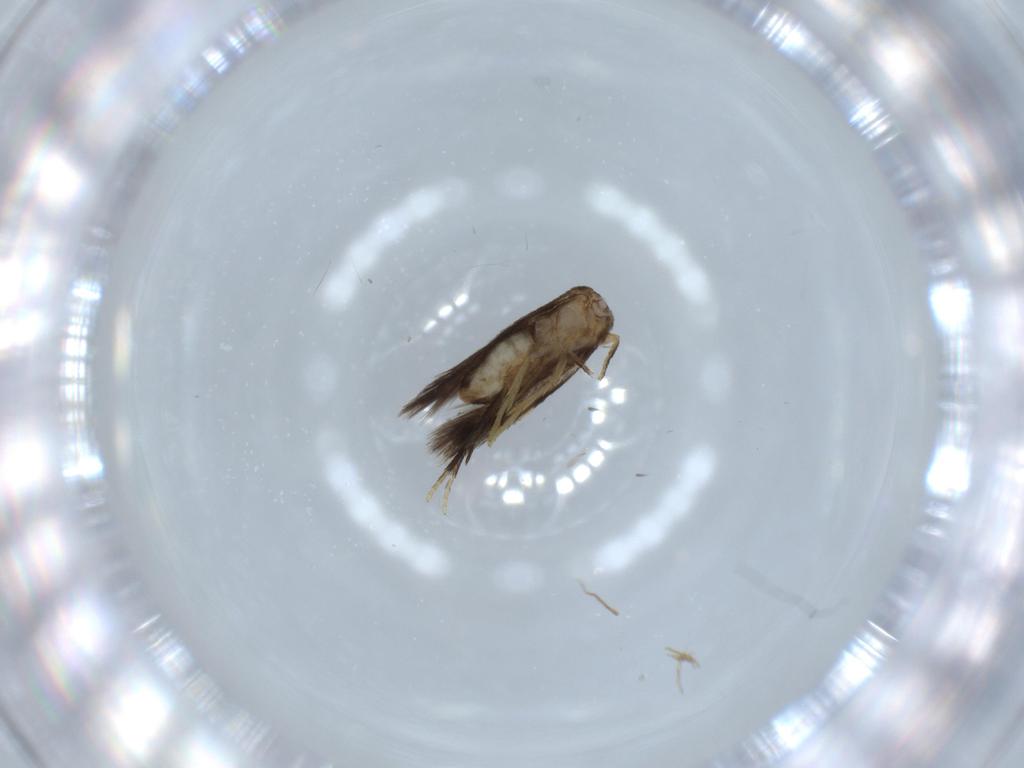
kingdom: Animalia
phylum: Arthropoda
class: Insecta
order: Lepidoptera
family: Nepticulidae
